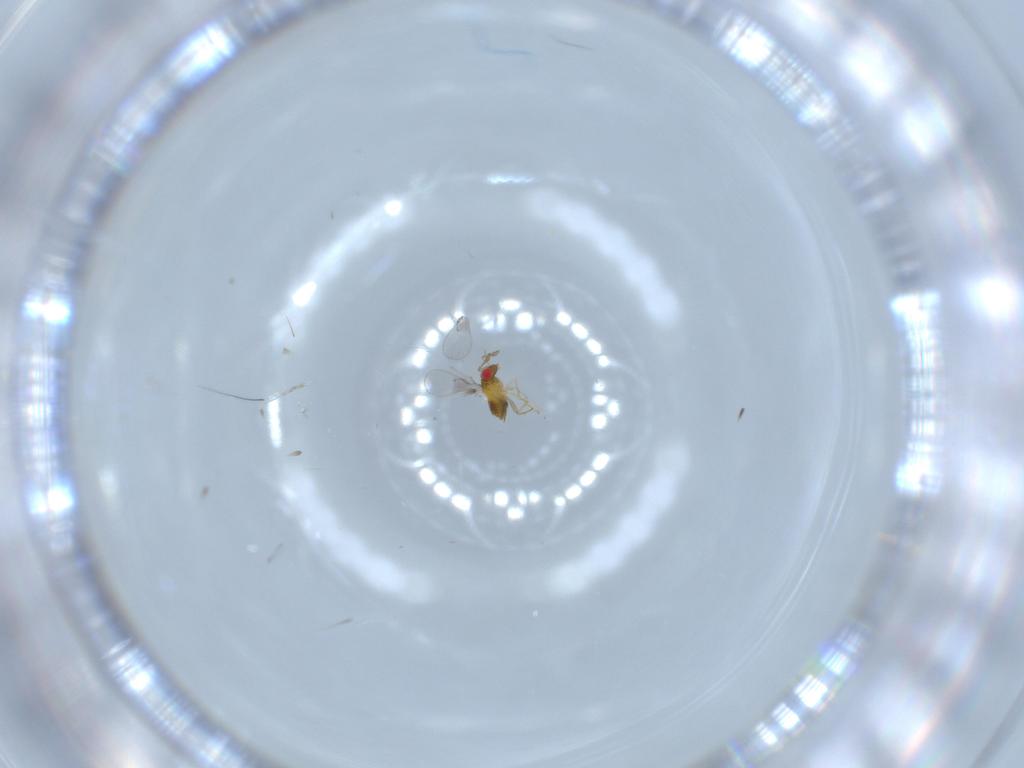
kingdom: Animalia
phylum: Arthropoda
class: Insecta
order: Hymenoptera
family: Trichogrammatidae
